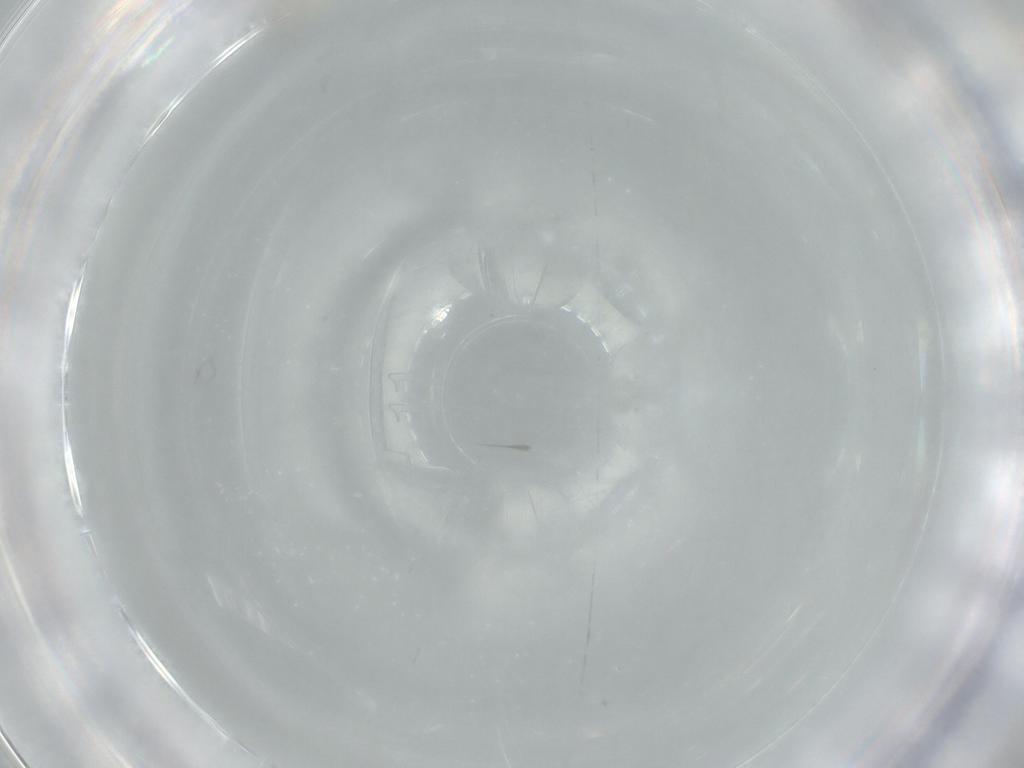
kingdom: Animalia
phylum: Arthropoda
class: Insecta
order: Diptera
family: Cecidomyiidae
